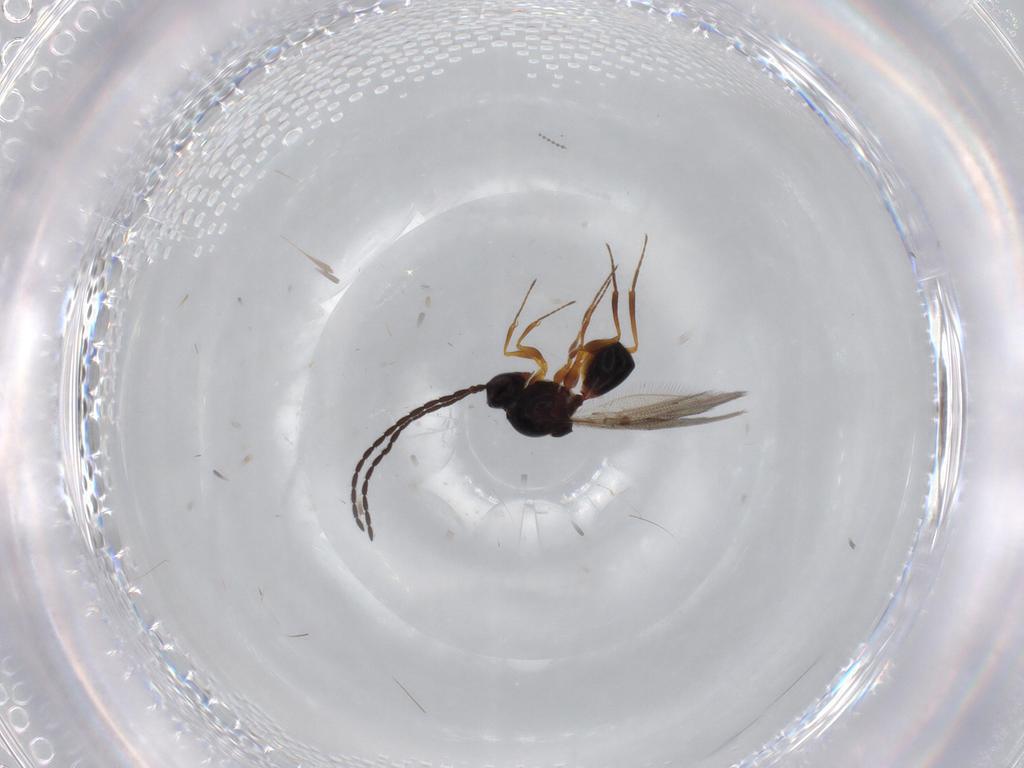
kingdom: Animalia
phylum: Arthropoda
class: Insecta
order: Hymenoptera
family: Figitidae
